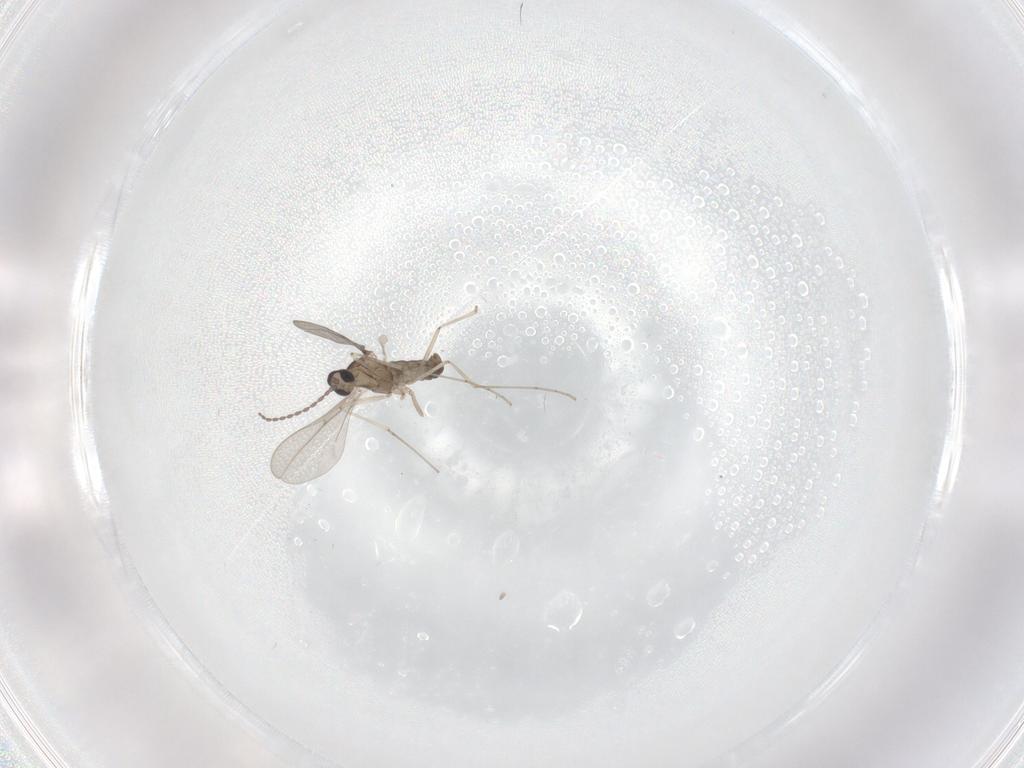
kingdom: Animalia
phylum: Arthropoda
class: Insecta
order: Diptera
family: Cecidomyiidae
